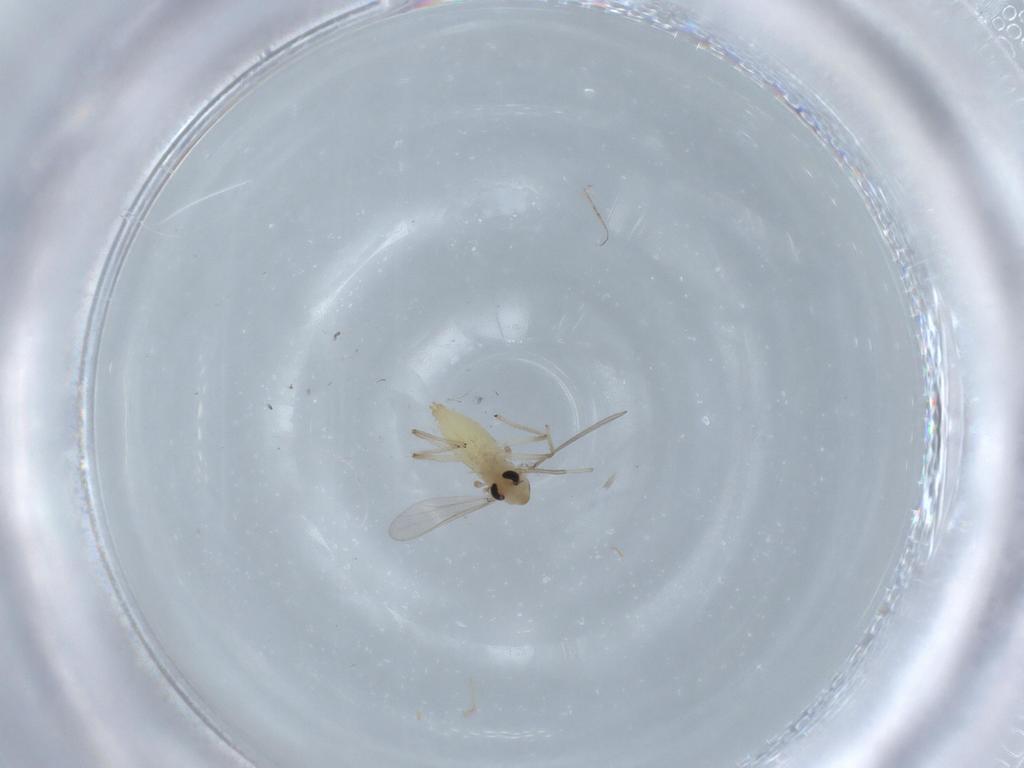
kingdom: Animalia
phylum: Arthropoda
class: Insecta
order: Diptera
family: Chironomidae
